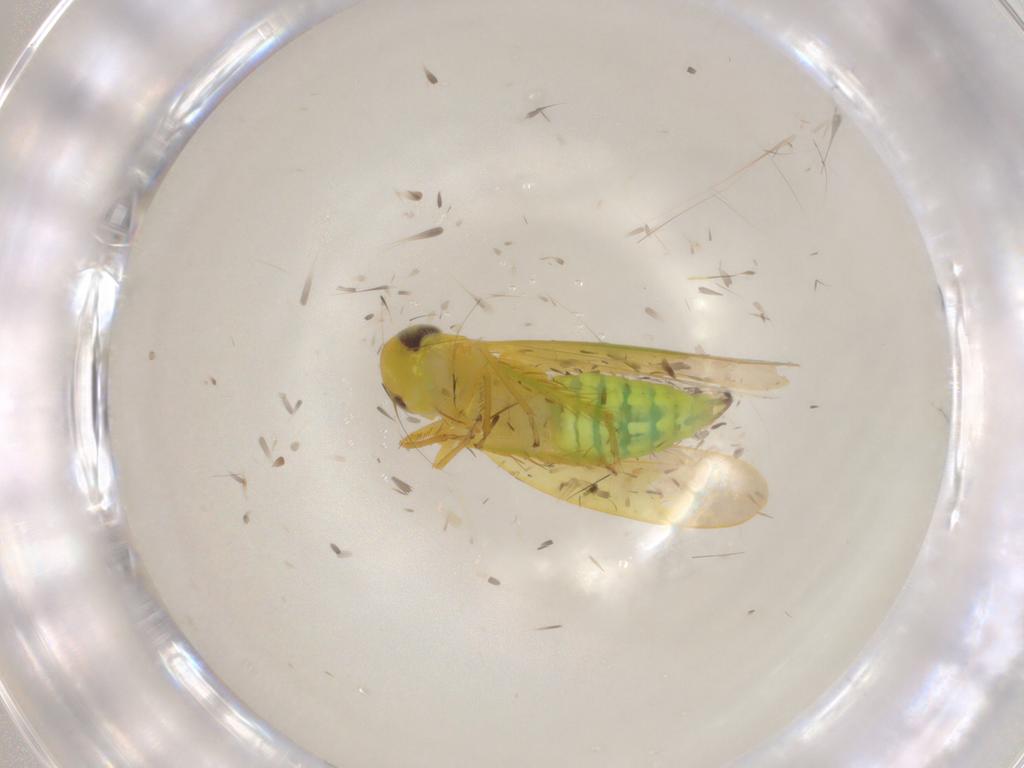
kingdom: Animalia
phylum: Arthropoda
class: Insecta
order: Hemiptera
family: Cicadellidae
